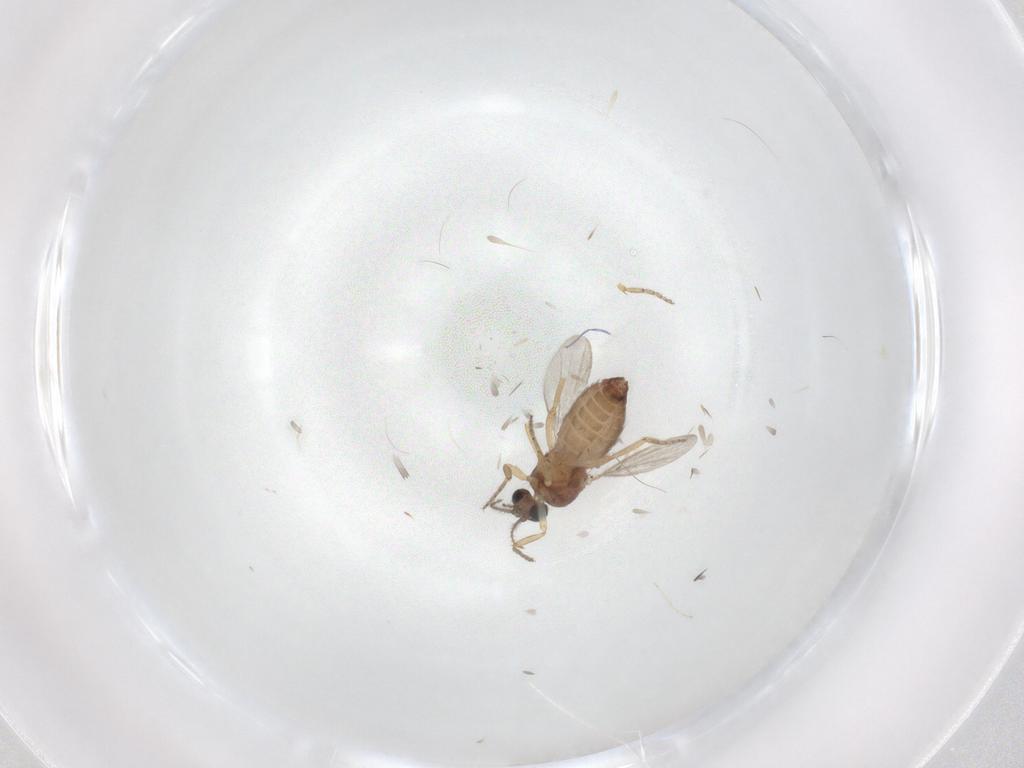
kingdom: Animalia
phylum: Arthropoda
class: Insecta
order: Diptera
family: Ceratopogonidae
